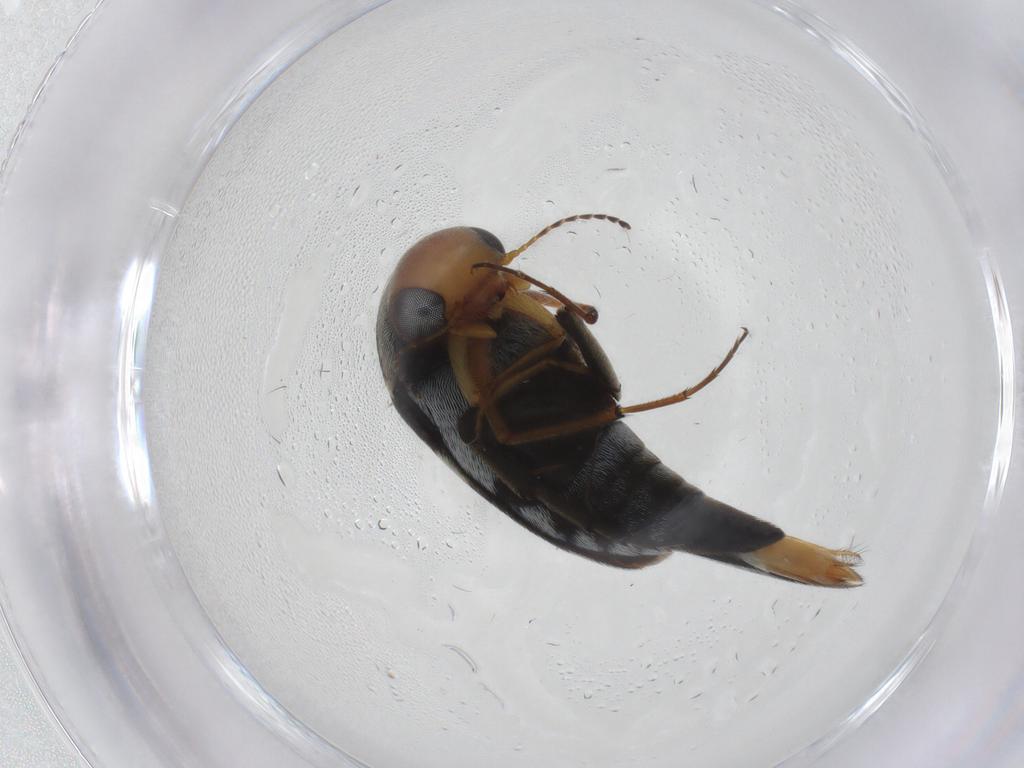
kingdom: Animalia
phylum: Arthropoda
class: Insecta
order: Coleoptera
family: Mordellidae
